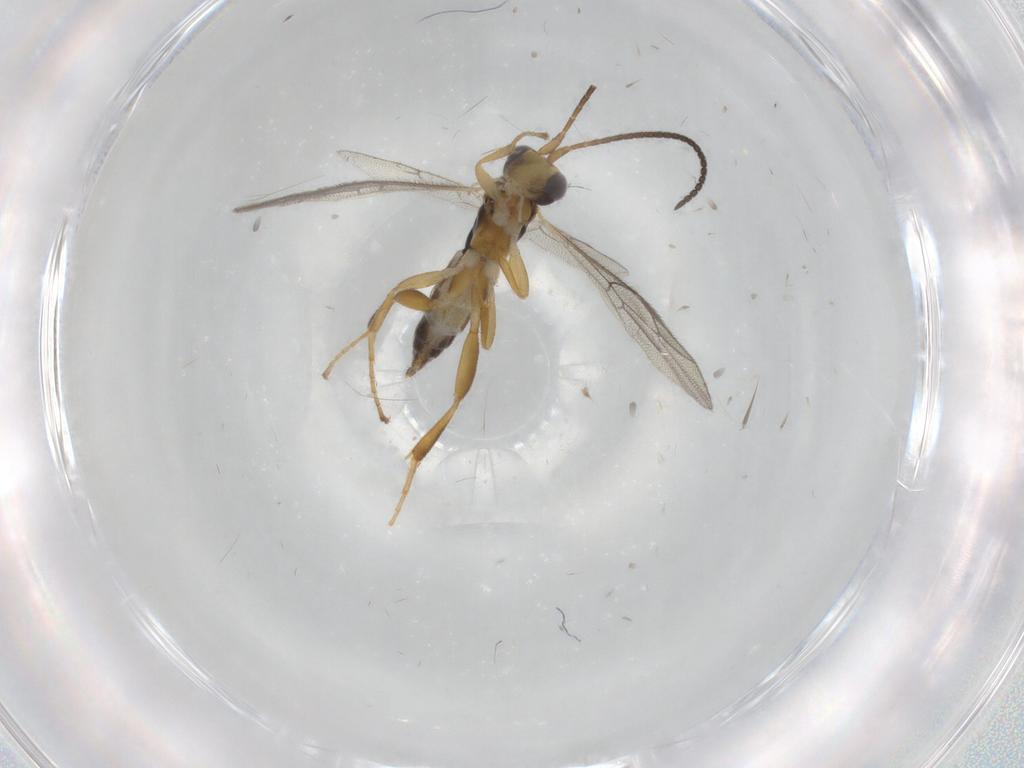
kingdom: Animalia
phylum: Arthropoda
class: Insecta
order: Hymenoptera
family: Ichneumonidae
